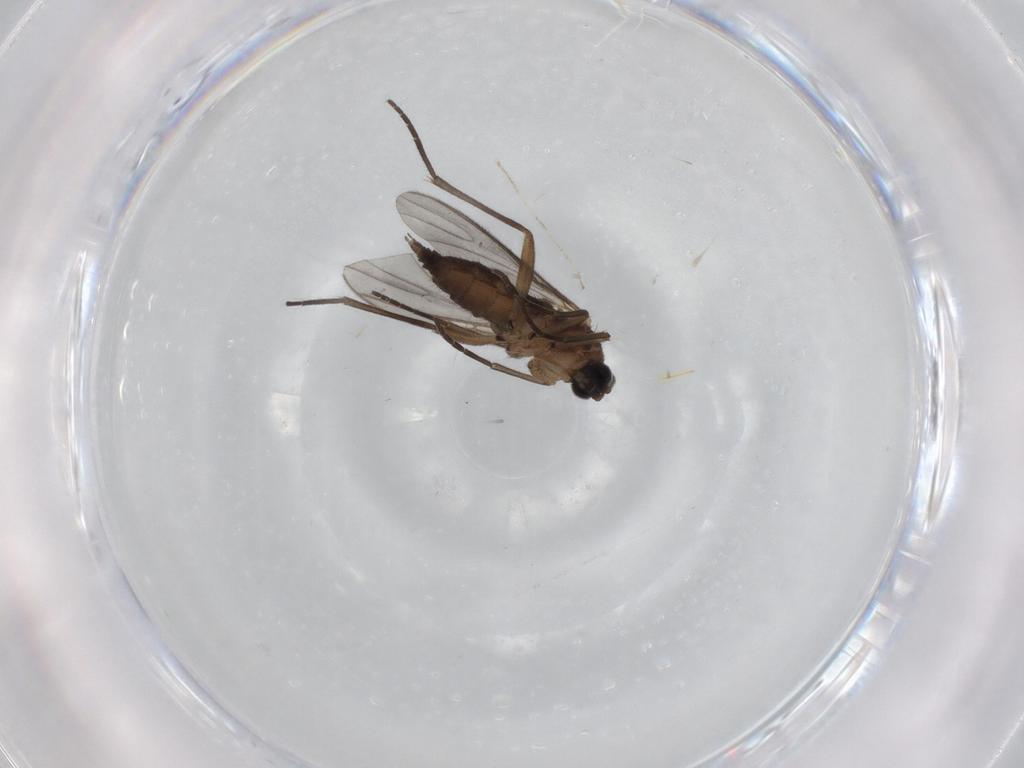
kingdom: Animalia
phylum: Arthropoda
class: Insecta
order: Diptera
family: Sciaridae
